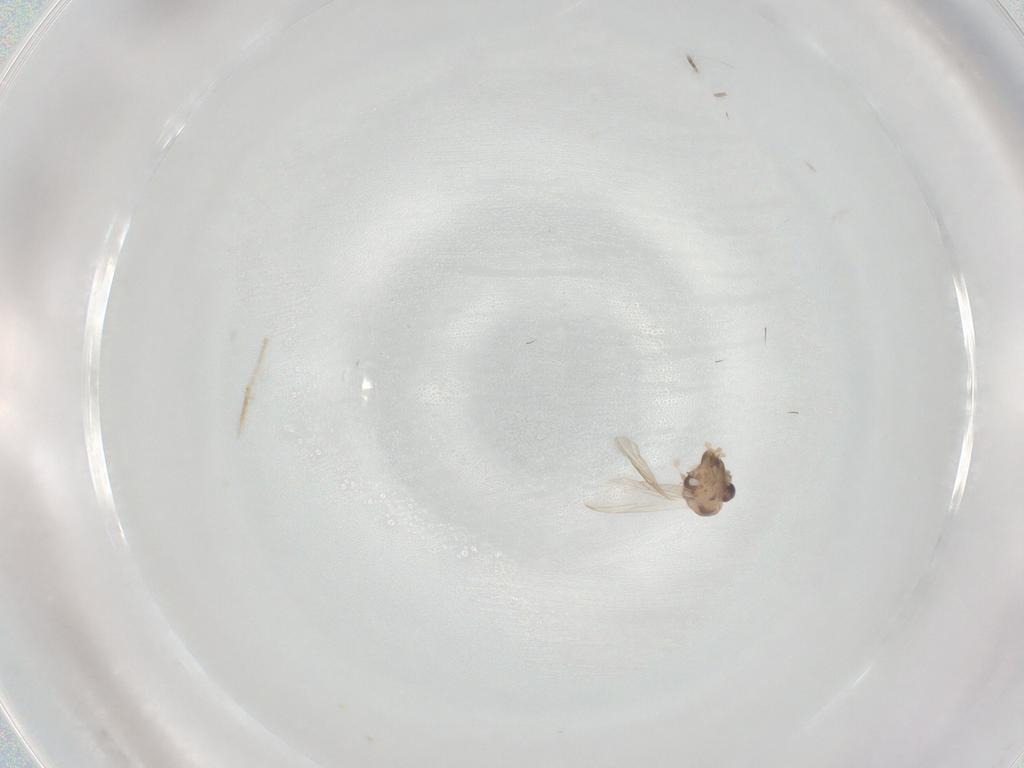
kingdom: Animalia
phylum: Arthropoda
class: Insecta
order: Diptera
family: Chironomidae
